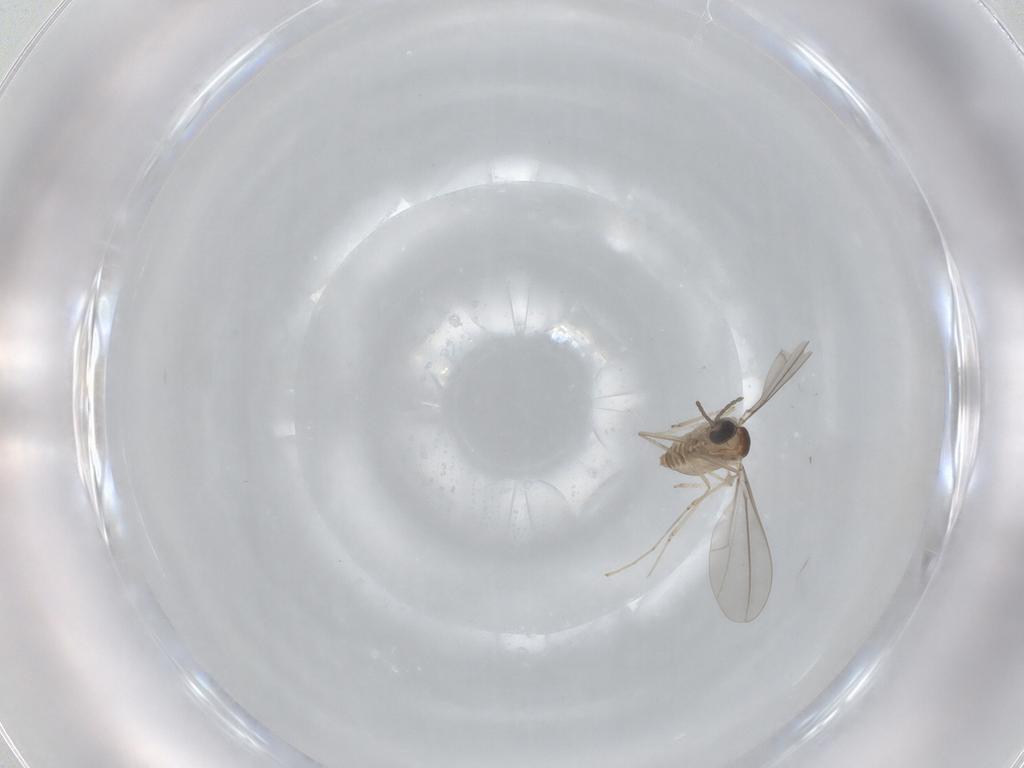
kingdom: Animalia
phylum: Arthropoda
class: Insecta
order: Diptera
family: Cecidomyiidae
